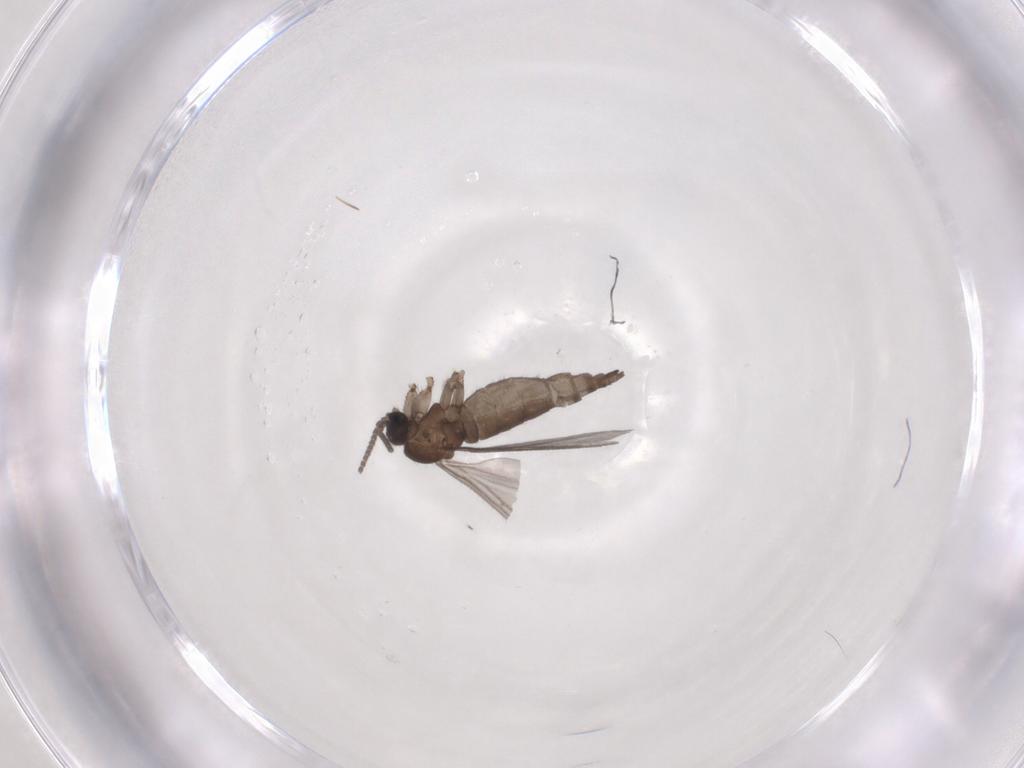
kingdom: Animalia
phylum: Arthropoda
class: Insecta
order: Diptera
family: Sciaridae
